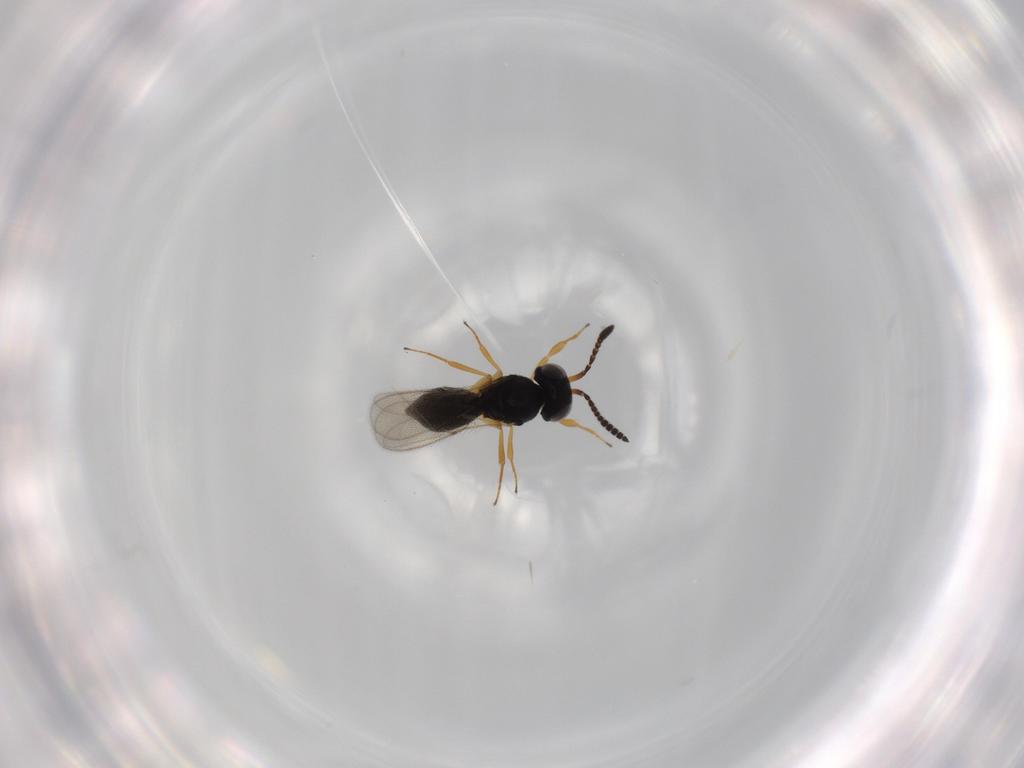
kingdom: Animalia
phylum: Arthropoda
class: Insecta
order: Hymenoptera
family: Scelionidae
